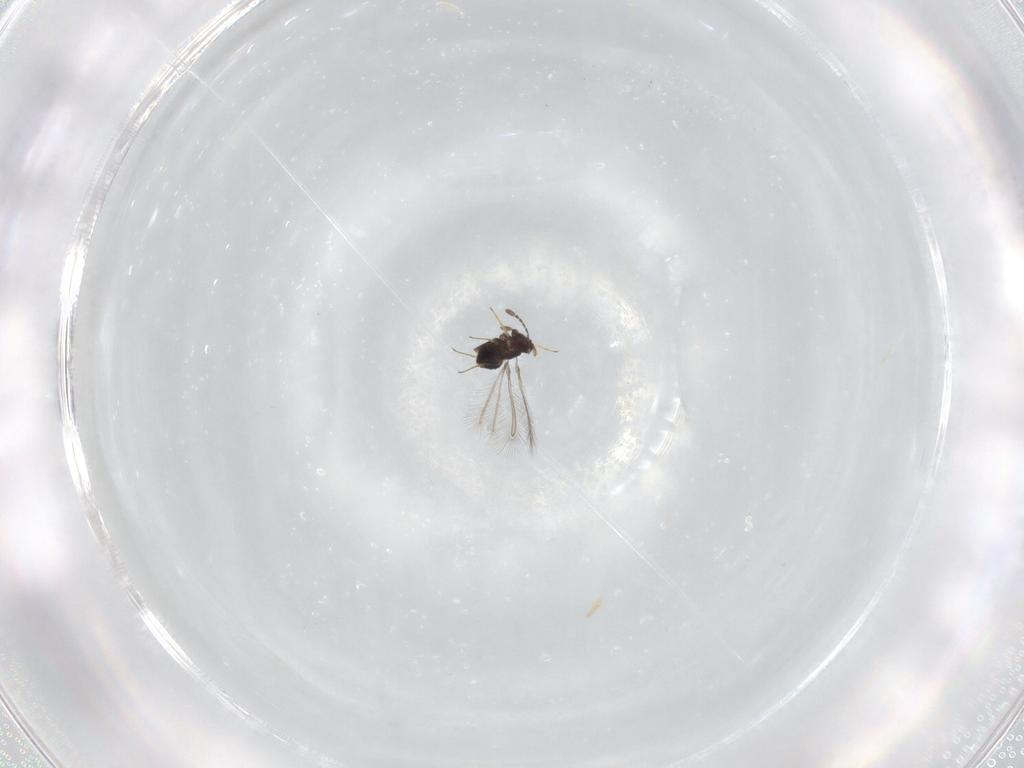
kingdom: Animalia
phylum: Arthropoda
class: Insecta
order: Hymenoptera
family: Mymaridae
